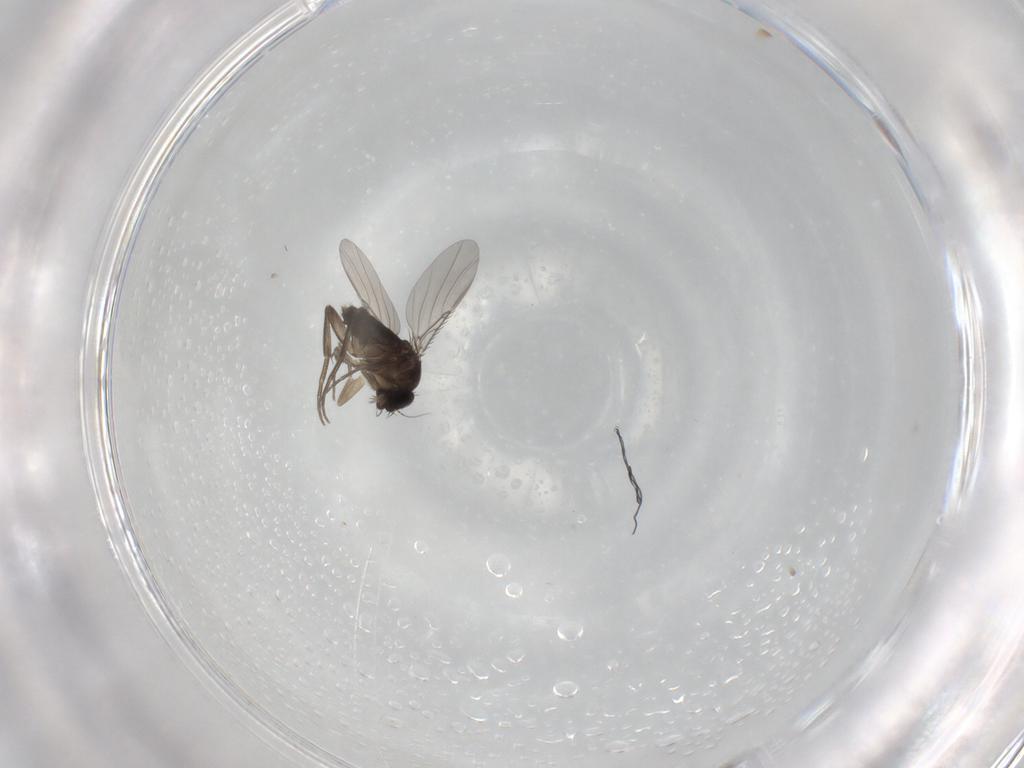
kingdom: Animalia
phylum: Arthropoda
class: Insecta
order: Diptera
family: Phoridae
